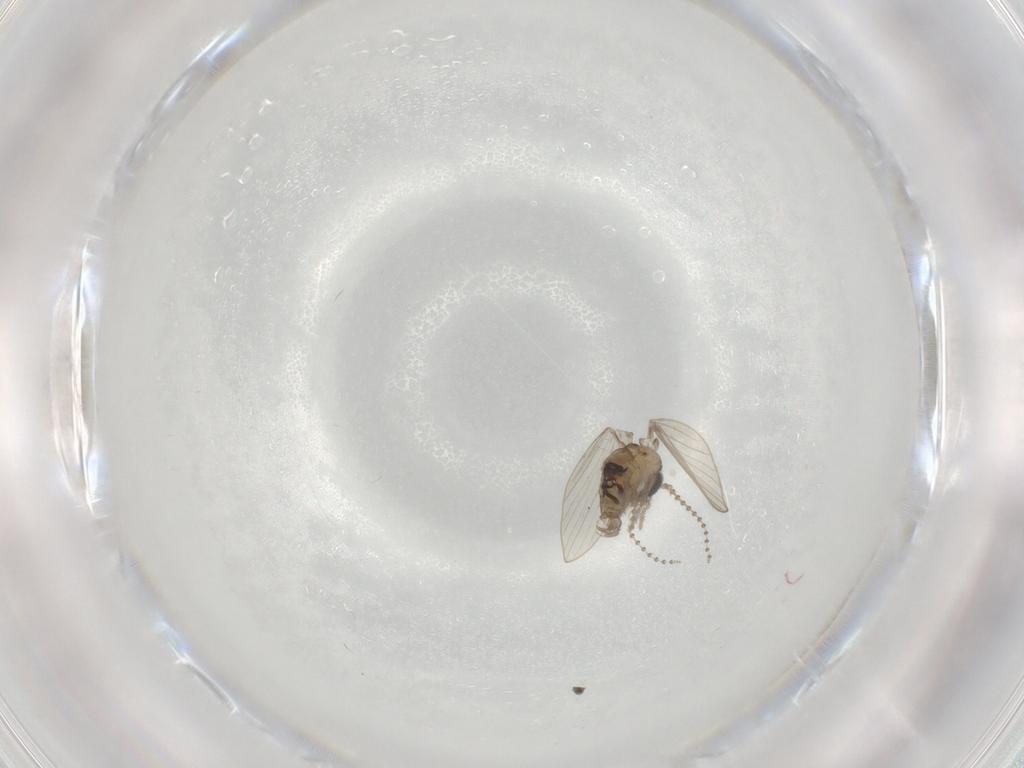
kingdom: Animalia
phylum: Arthropoda
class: Insecta
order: Diptera
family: Psychodidae
